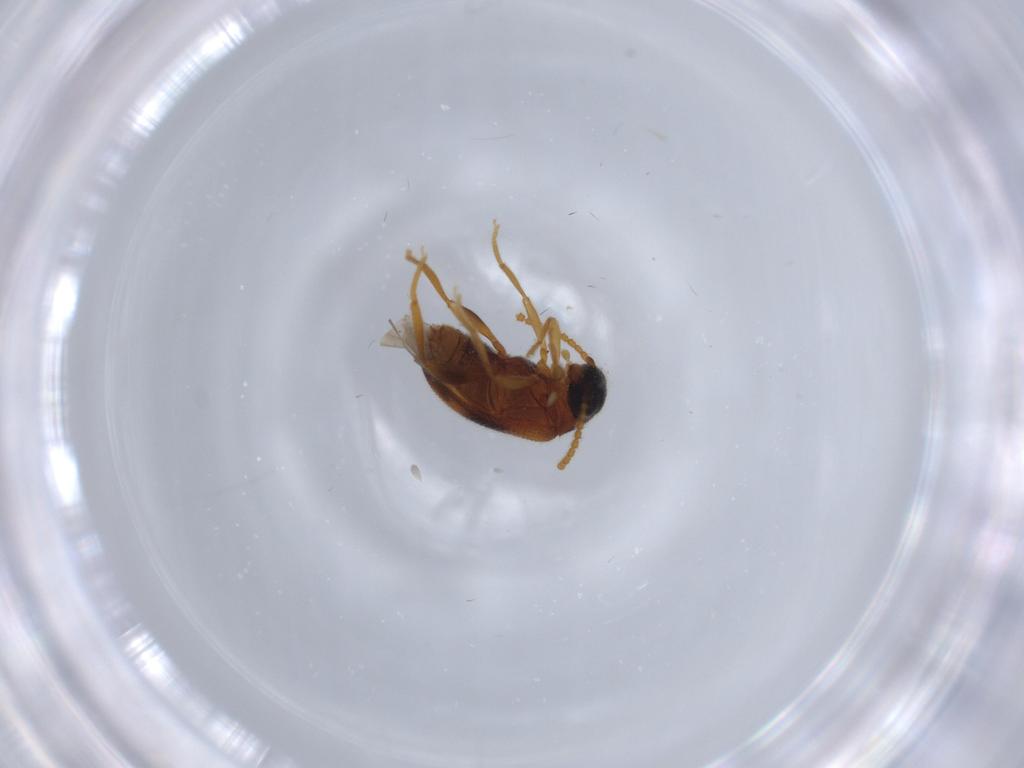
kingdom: Animalia
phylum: Arthropoda
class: Insecta
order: Coleoptera
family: Aderidae
